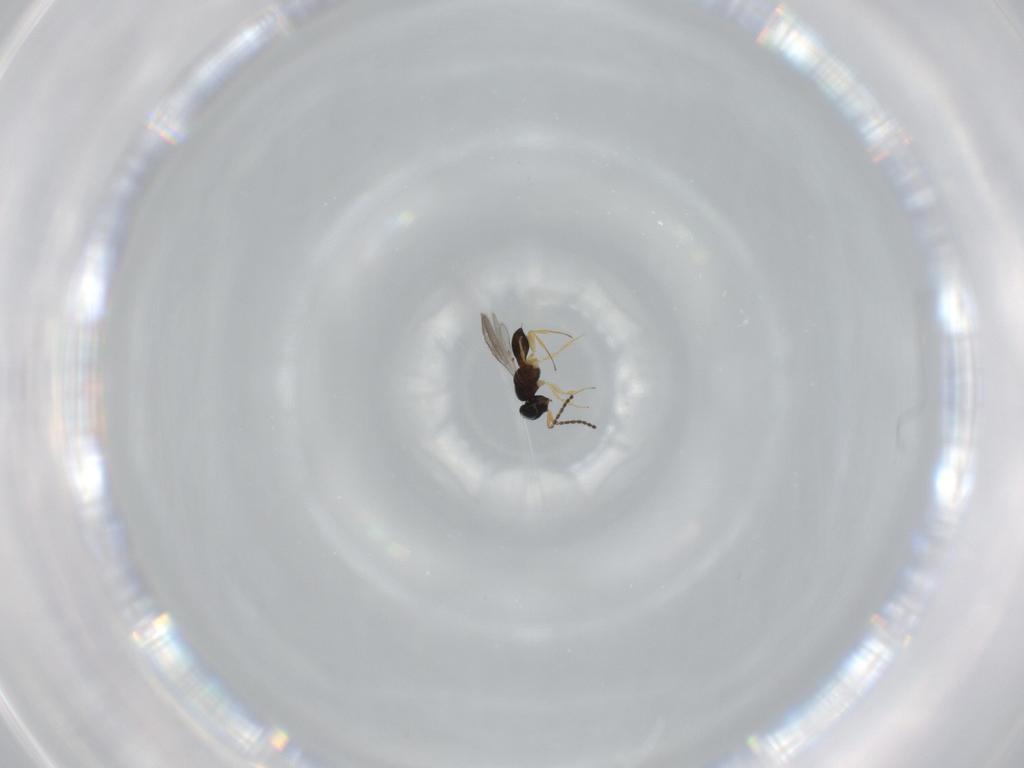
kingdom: Animalia
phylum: Arthropoda
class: Insecta
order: Hymenoptera
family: Scelionidae
